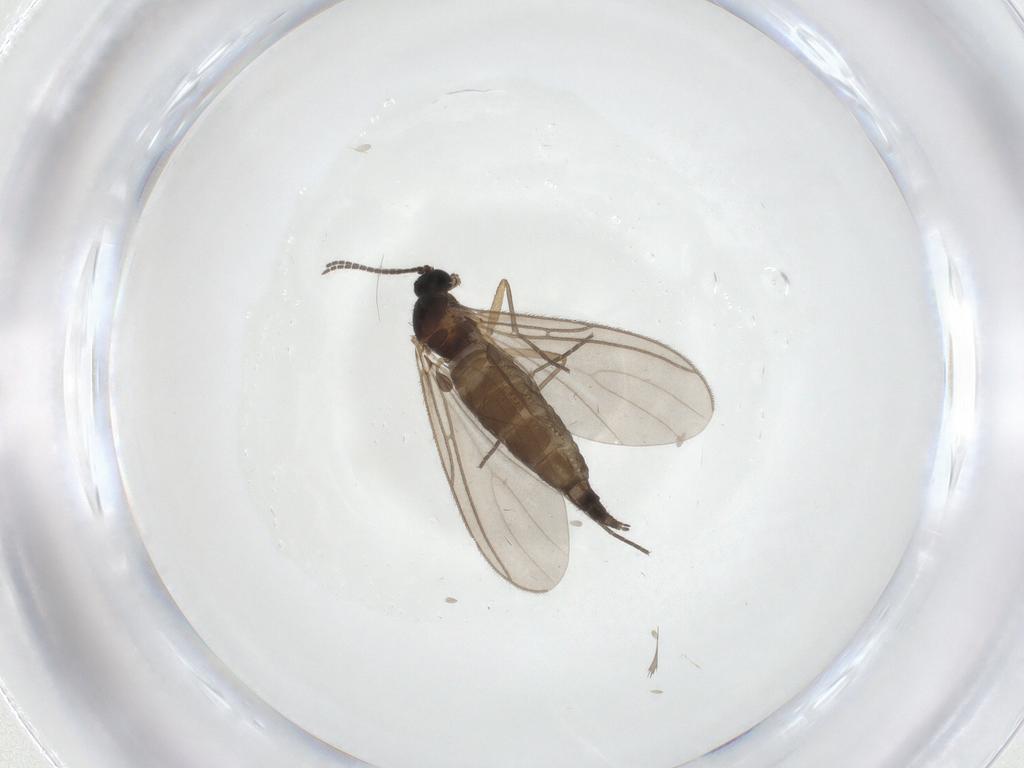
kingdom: Animalia
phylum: Arthropoda
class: Insecta
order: Diptera
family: Sciaridae
